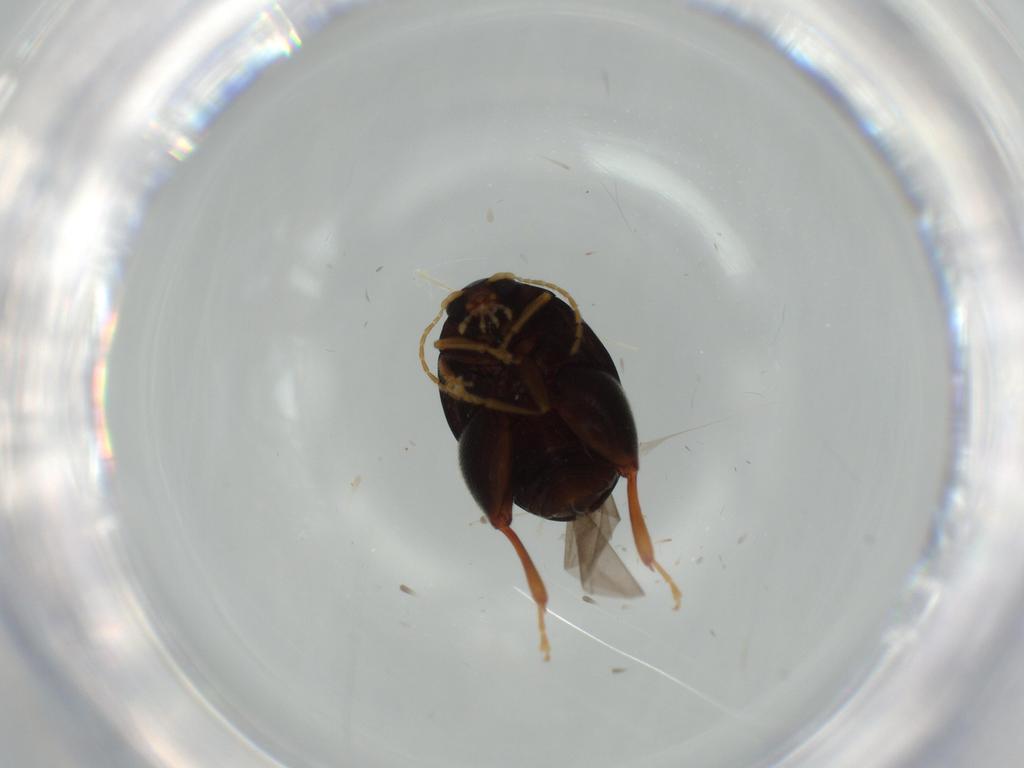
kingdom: Animalia
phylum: Arthropoda
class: Insecta
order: Coleoptera
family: Chrysomelidae
